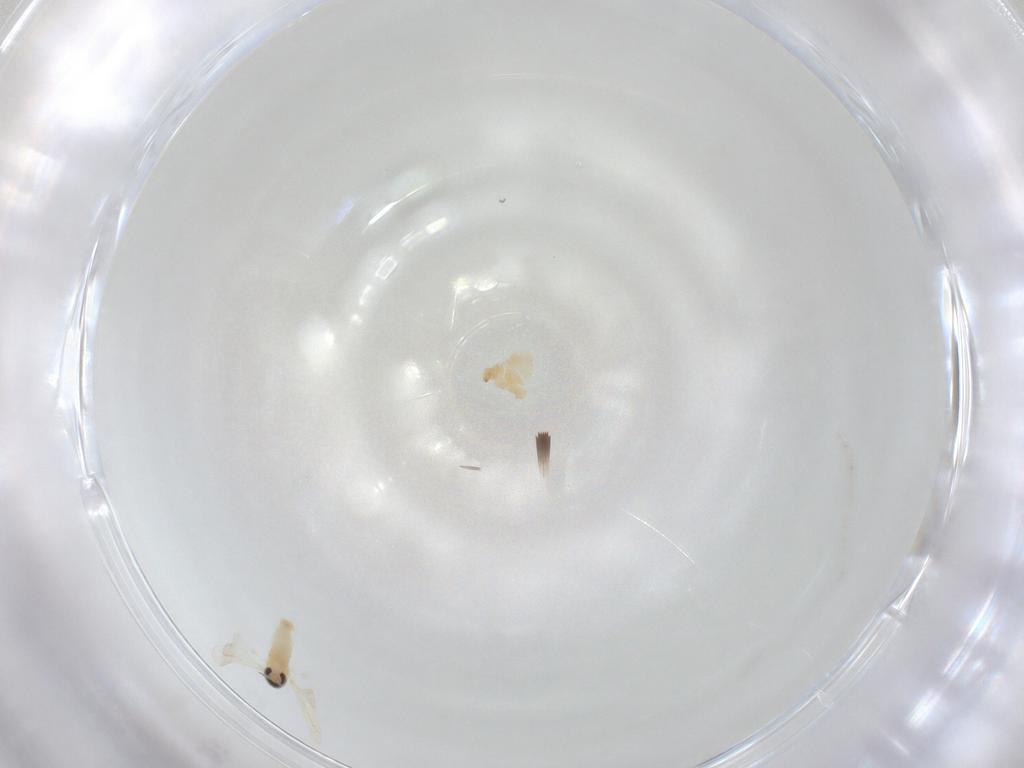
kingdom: Animalia
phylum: Arthropoda
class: Insecta
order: Diptera
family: Cecidomyiidae
